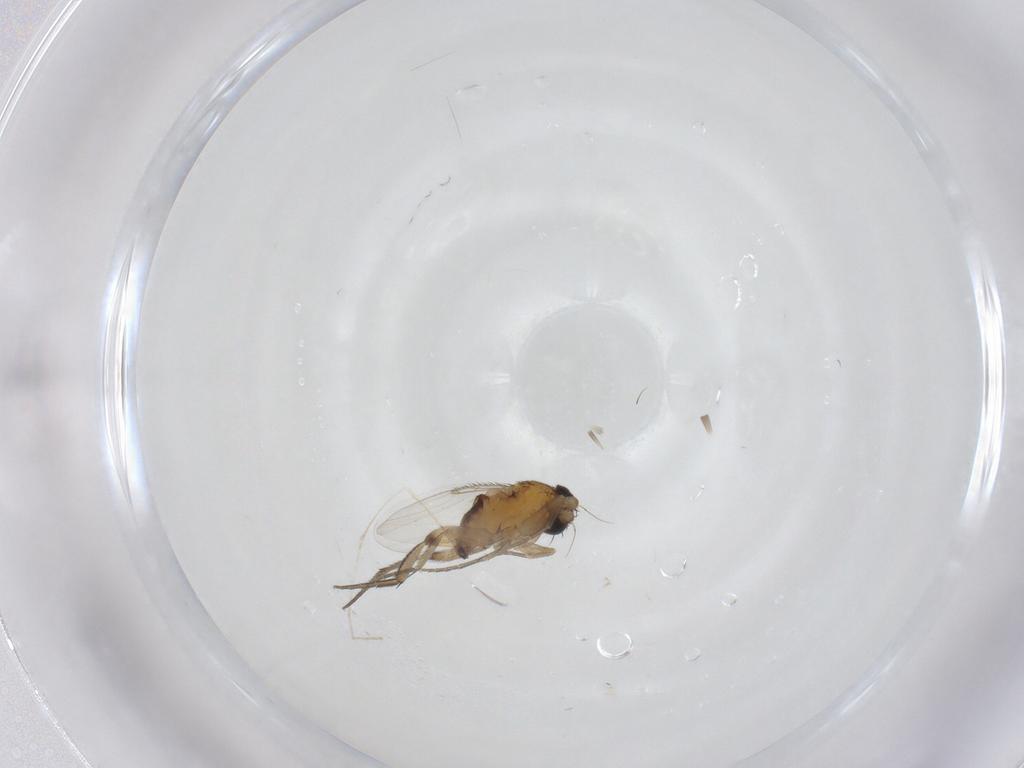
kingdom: Animalia
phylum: Arthropoda
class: Insecta
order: Diptera
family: Phoridae
